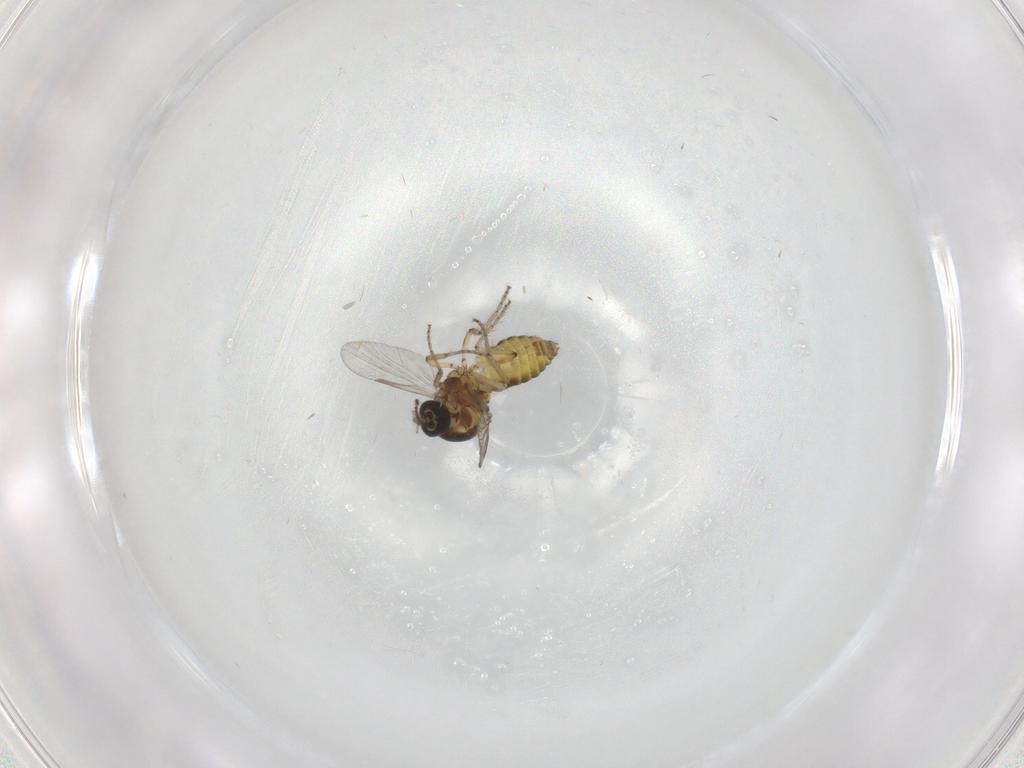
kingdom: Animalia
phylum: Arthropoda
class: Insecta
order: Diptera
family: Ceratopogonidae
